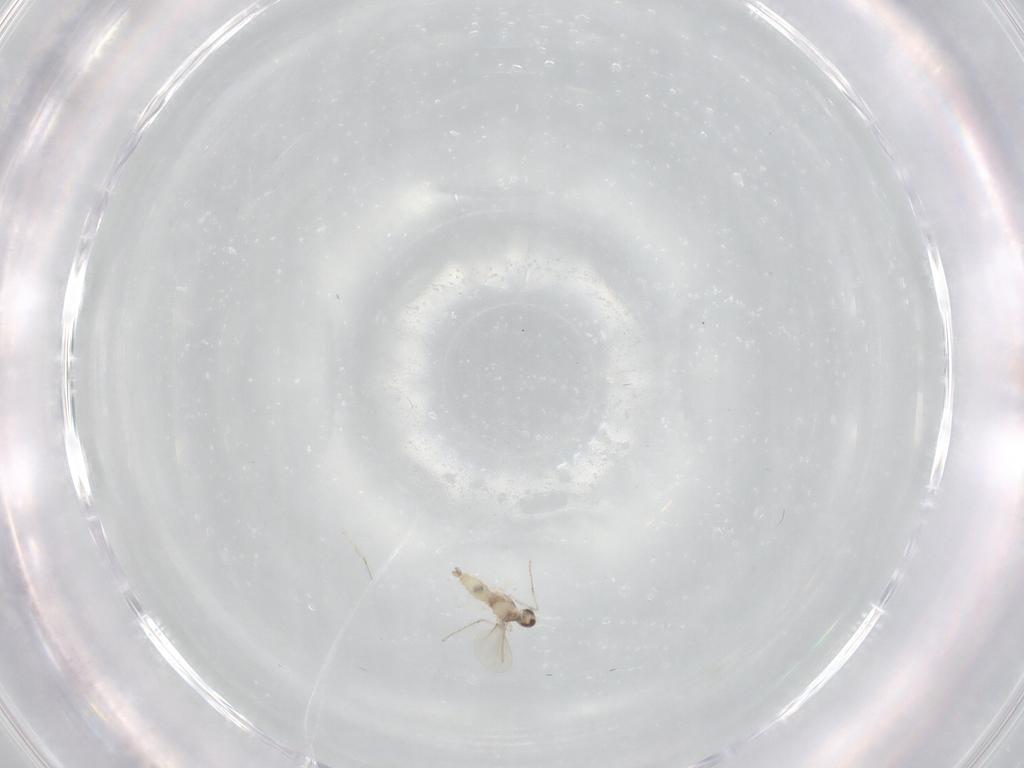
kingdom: Animalia
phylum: Arthropoda
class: Insecta
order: Diptera
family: Cecidomyiidae
